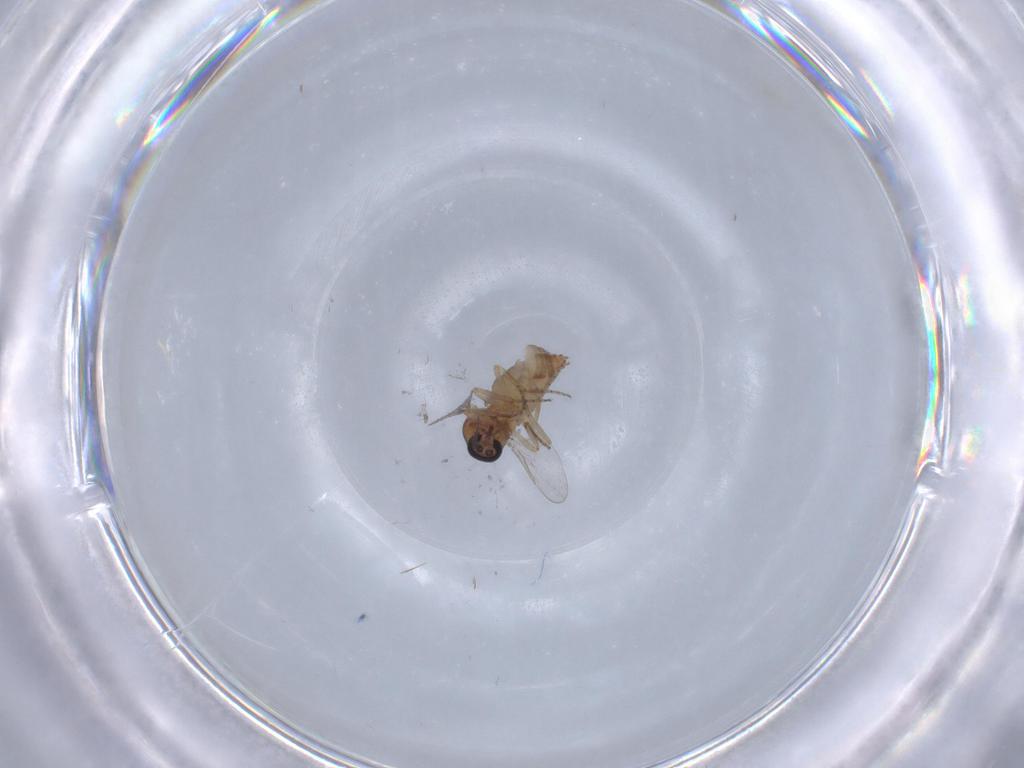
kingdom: Animalia
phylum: Arthropoda
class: Insecta
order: Diptera
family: Ceratopogonidae
